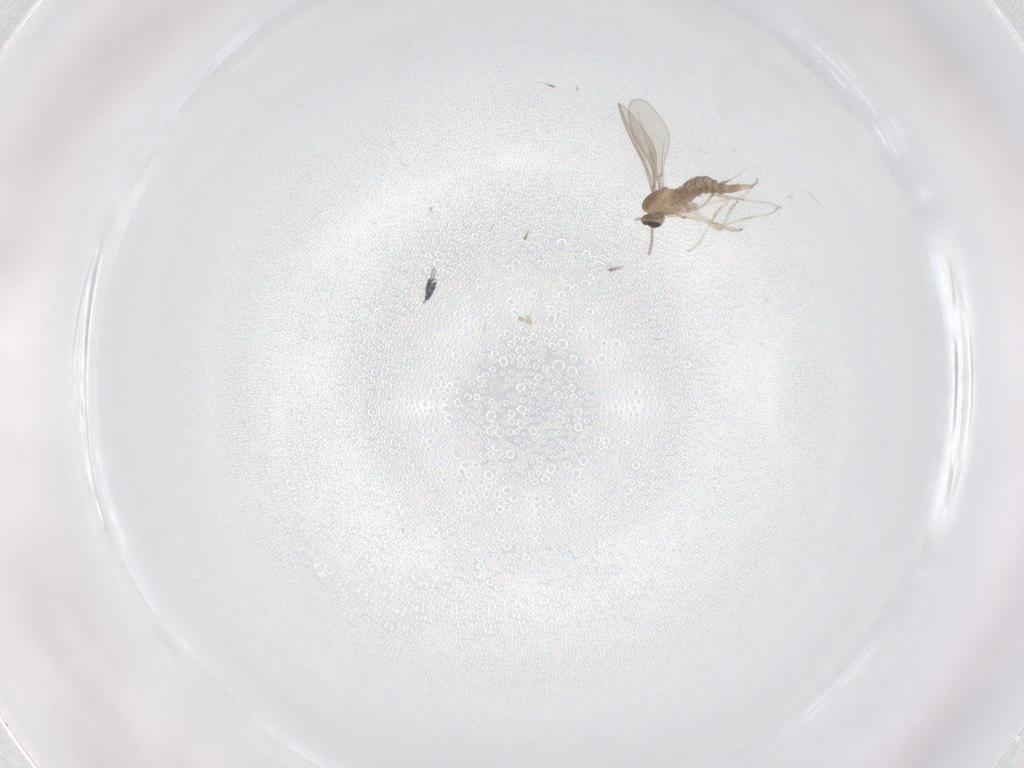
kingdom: Animalia
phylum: Arthropoda
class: Insecta
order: Diptera
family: Cecidomyiidae
